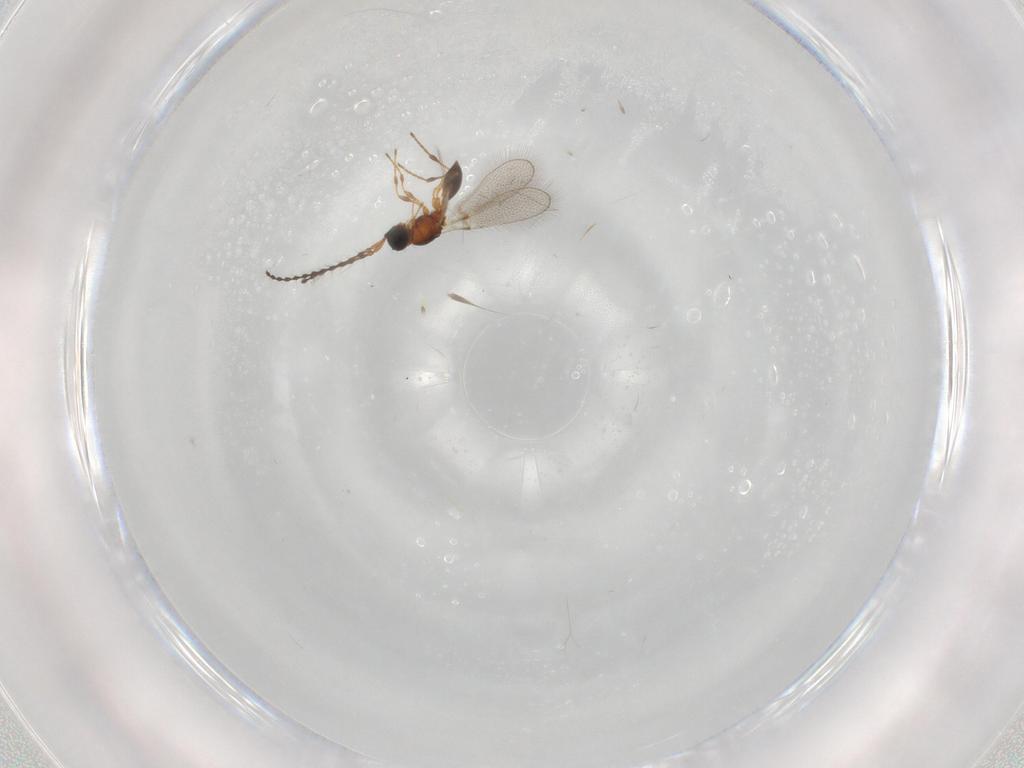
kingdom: Animalia
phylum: Arthropoda
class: Insecta
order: Hymenoptera
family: Diapriidae
